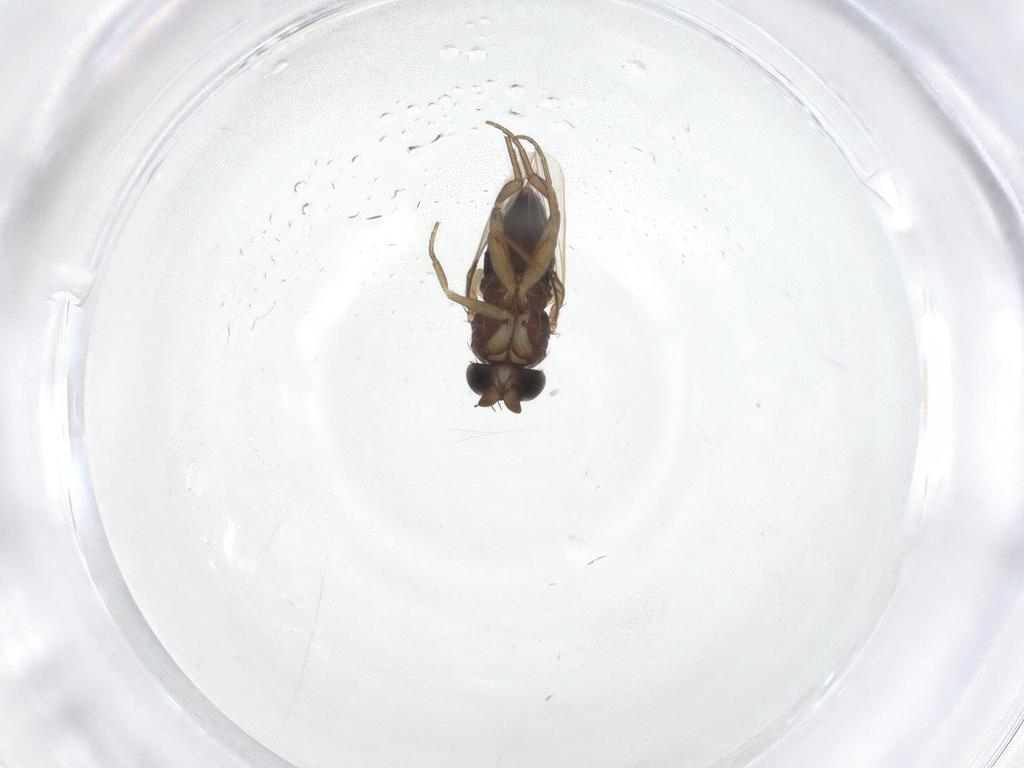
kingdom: Animalia
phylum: Arthropoda
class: Insecta
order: Diptera
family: Phoridae
